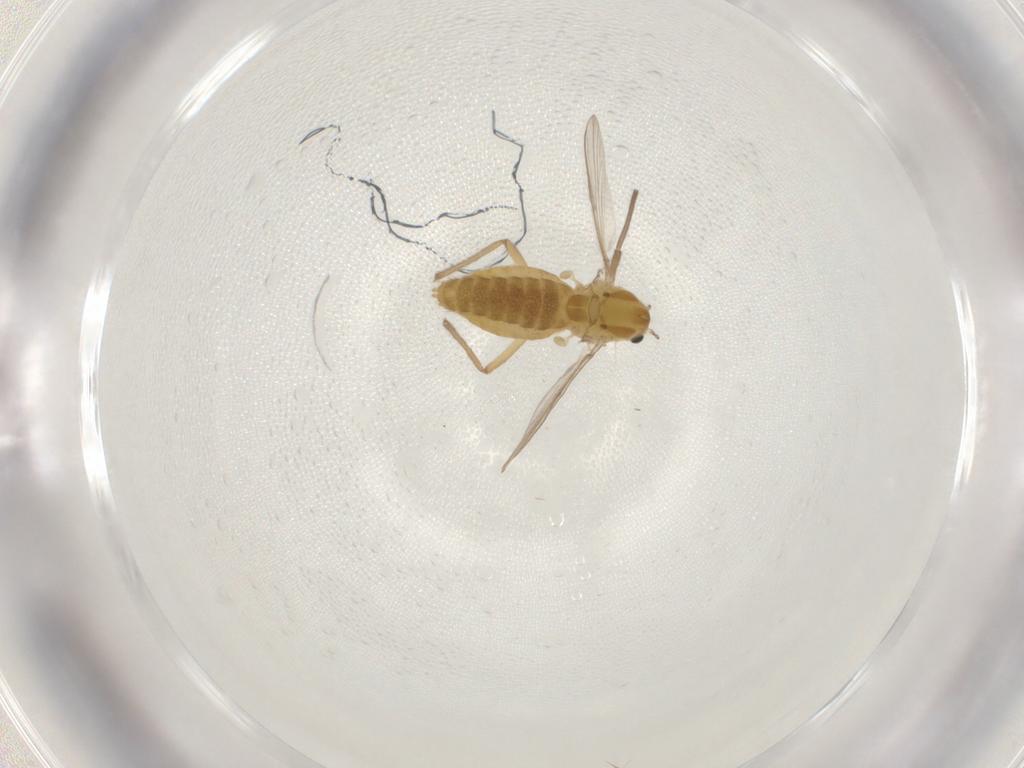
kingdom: Animalia
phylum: Arthropoda
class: Insecta
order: Diptera
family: Chironomidae
